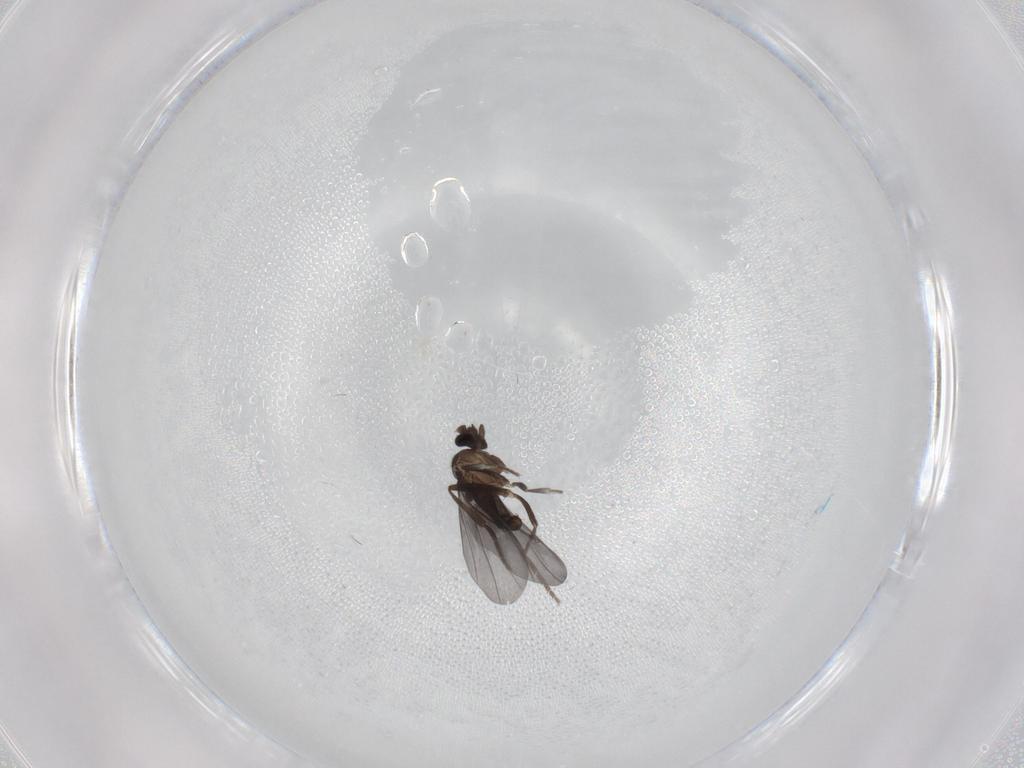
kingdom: Animalia
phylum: Arthropoda
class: Insecta
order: Diptera
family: Phoridae
